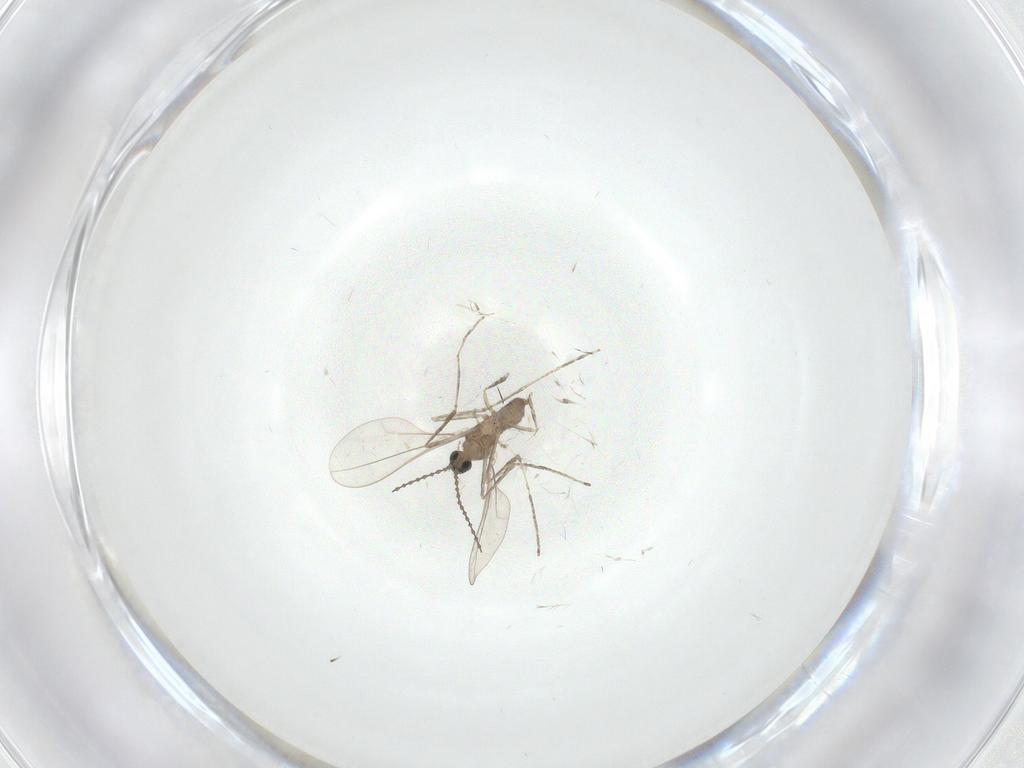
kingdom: Animalia
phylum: Arthropoda
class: Insecta
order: Diptera
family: Cecidomyiidae
